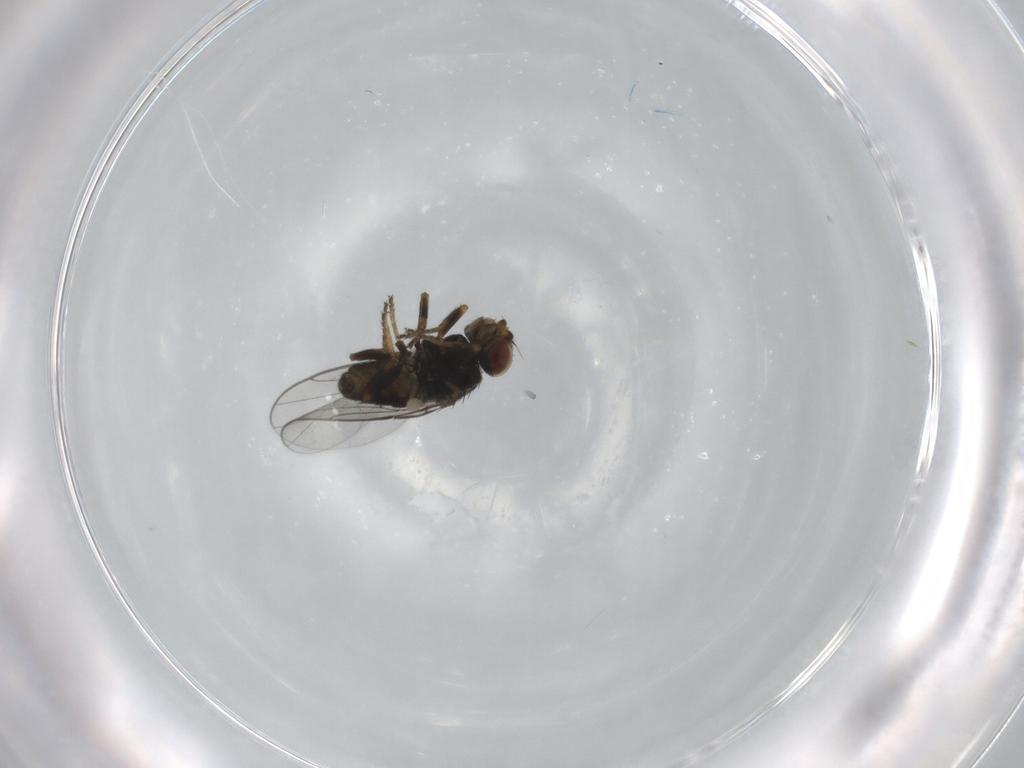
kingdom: Animalia
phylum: Arthropoda
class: Insecta
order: Diptera
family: Chloropidae
